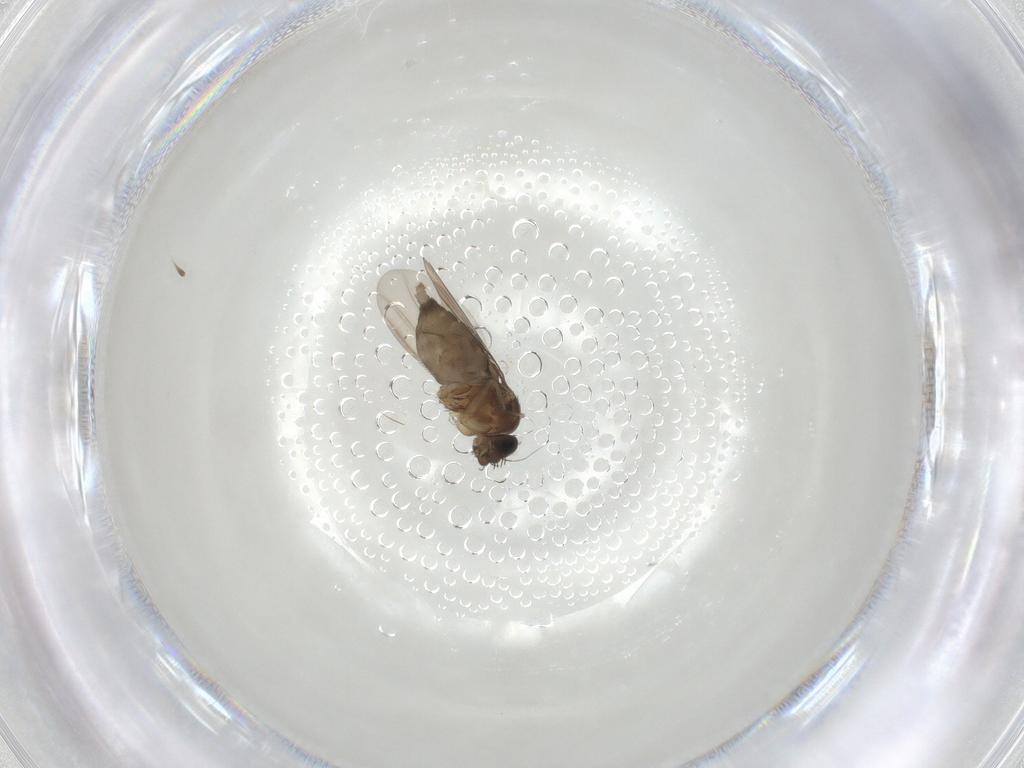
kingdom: Animalia
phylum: Arthropoda
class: Insecta
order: Diptera
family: Phoridae
